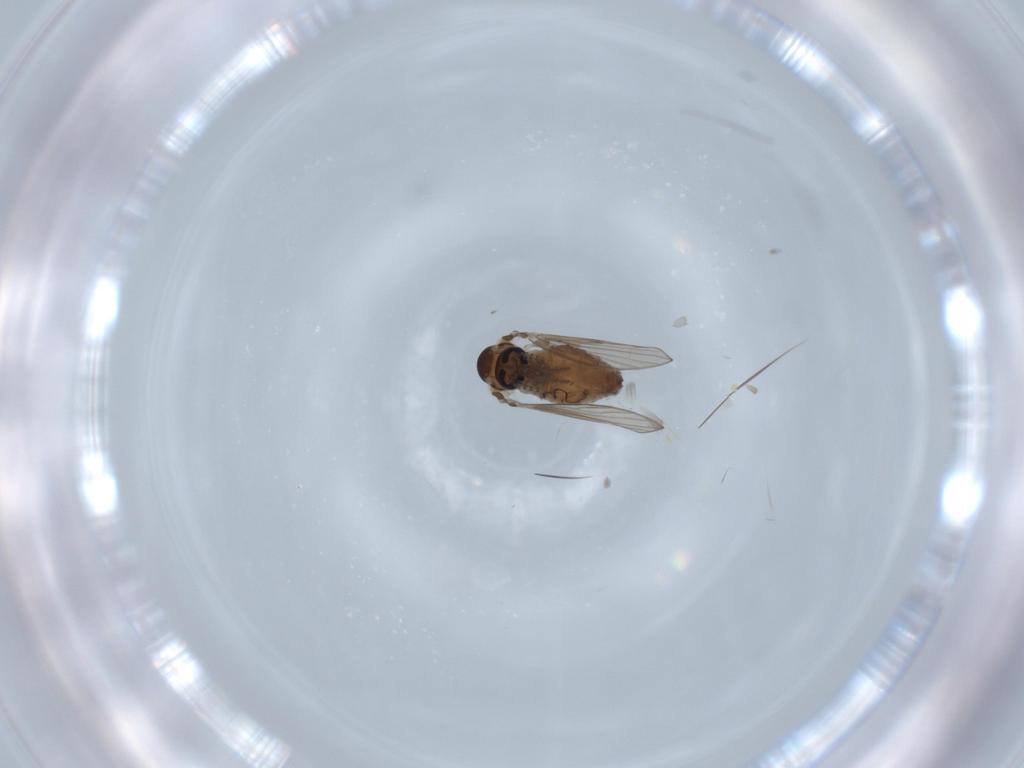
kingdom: Animalia
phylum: Arthropoda
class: Insecta
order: Diptera
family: Psychodidae
